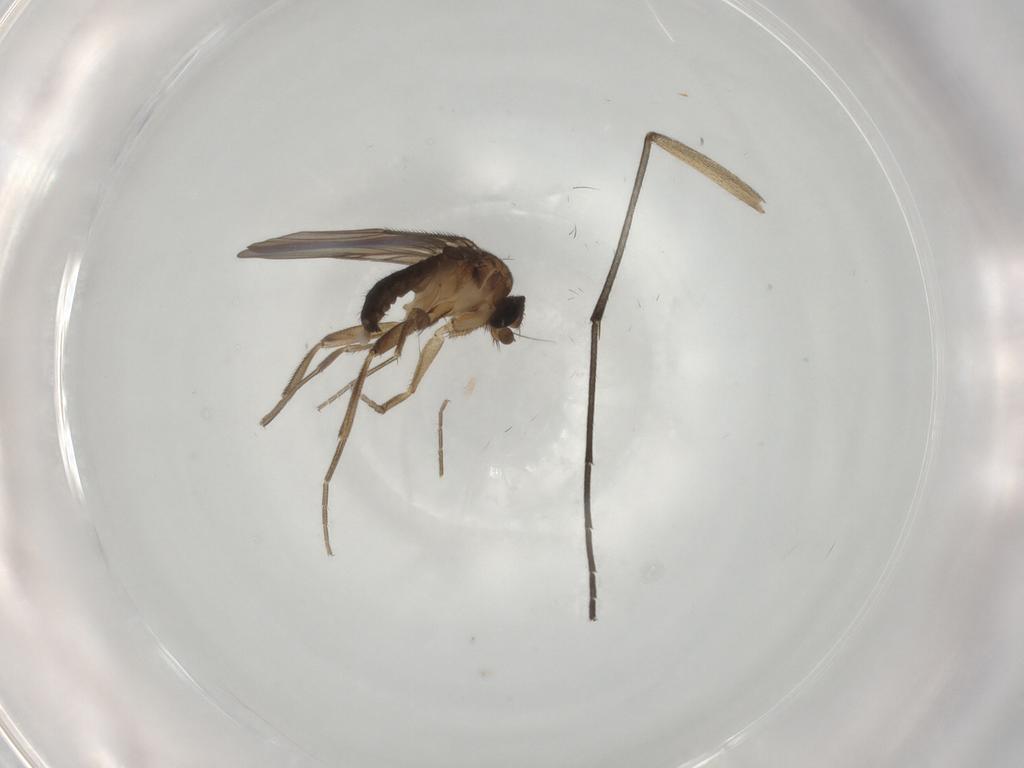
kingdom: Animalia
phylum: Arthropoda
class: Insecta
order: Diptera
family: Phoridae
